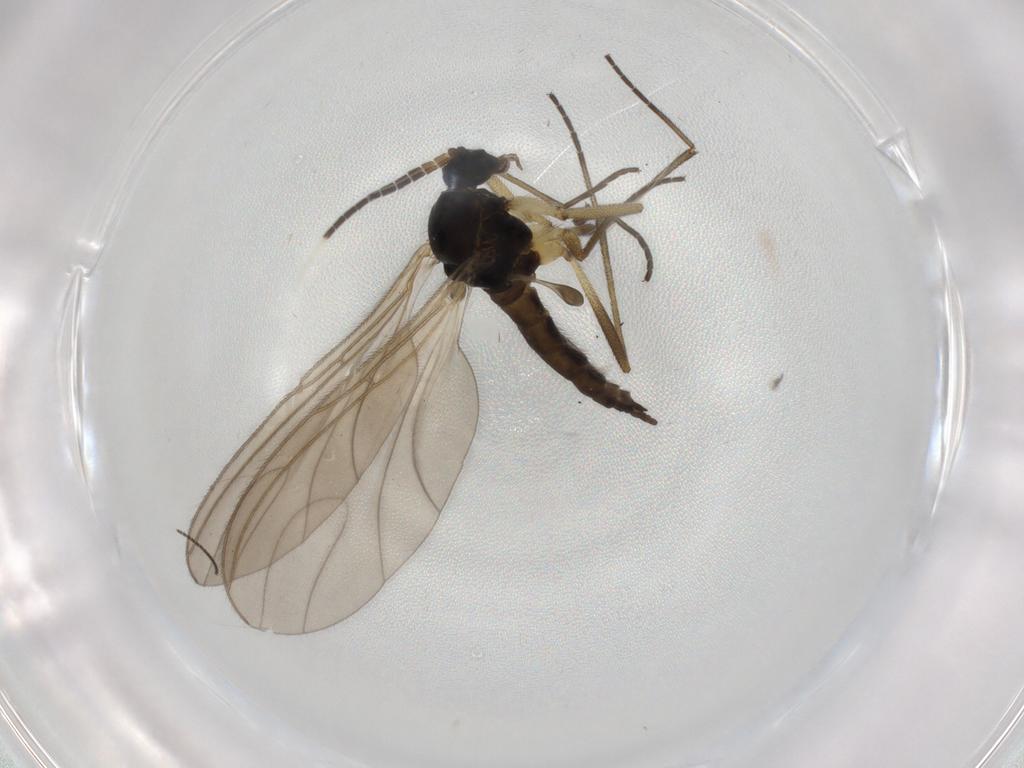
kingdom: Animalia
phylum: Arthropoda
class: Insecta
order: Diptera
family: Sciaridae
